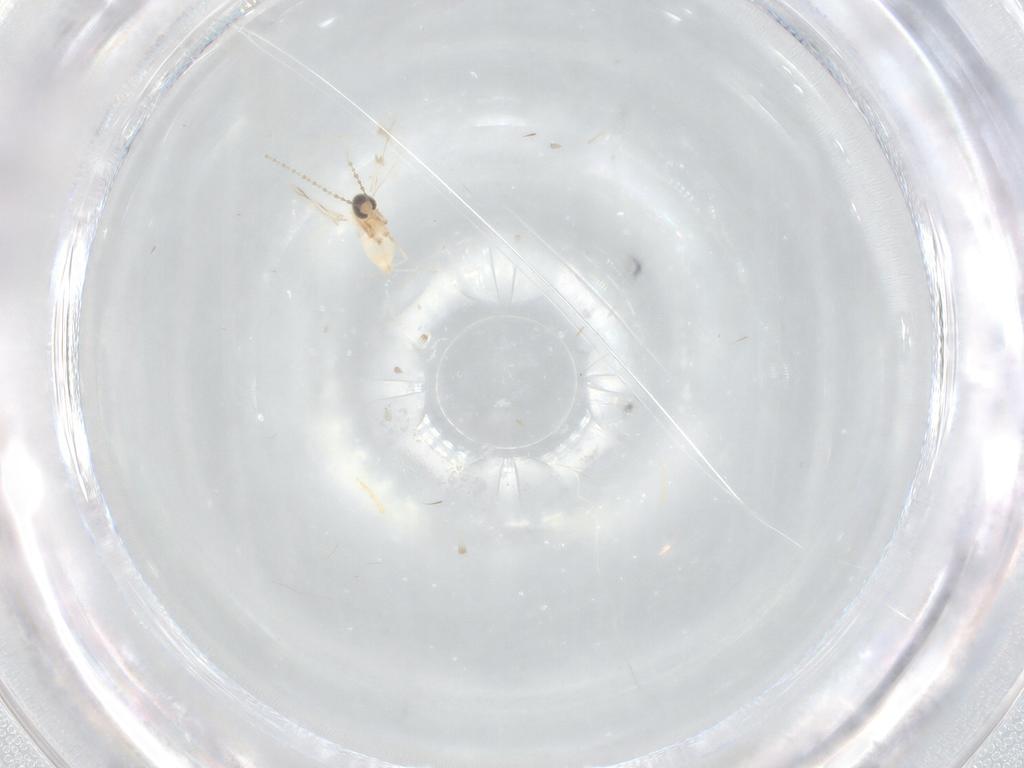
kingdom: Animalia
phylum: Arthropoda
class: Insecta
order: Diptera
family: Cecidomyiidae
